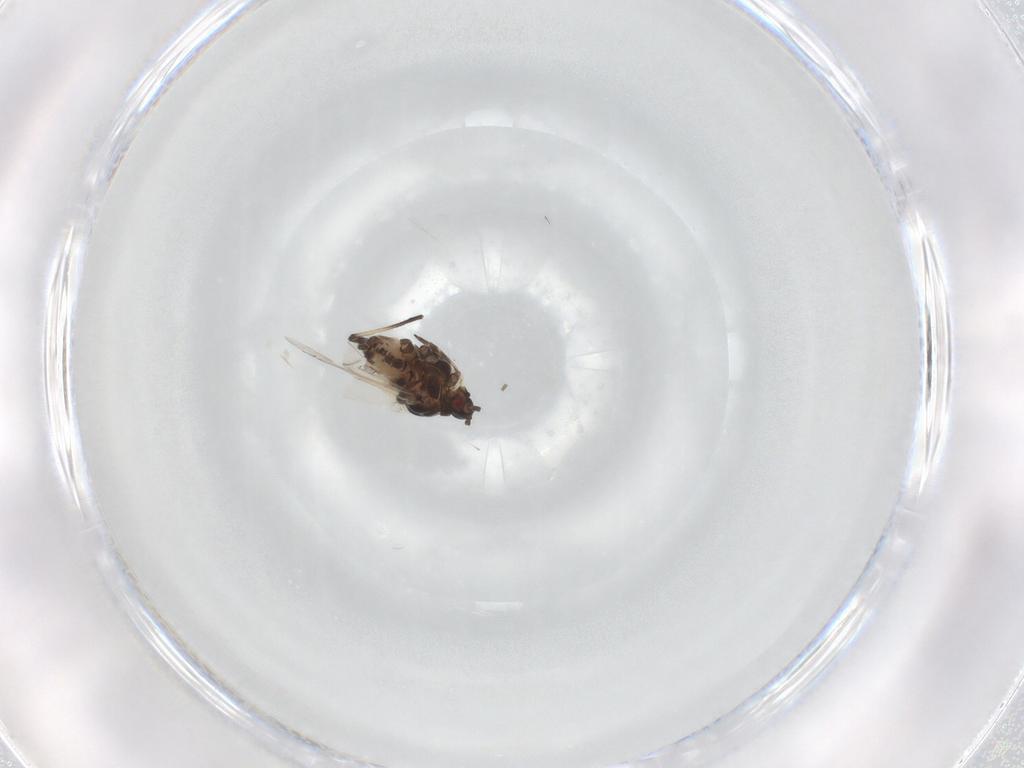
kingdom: Animalia
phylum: Arthropoda
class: Insecta
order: Hemiptera
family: Aphididae
